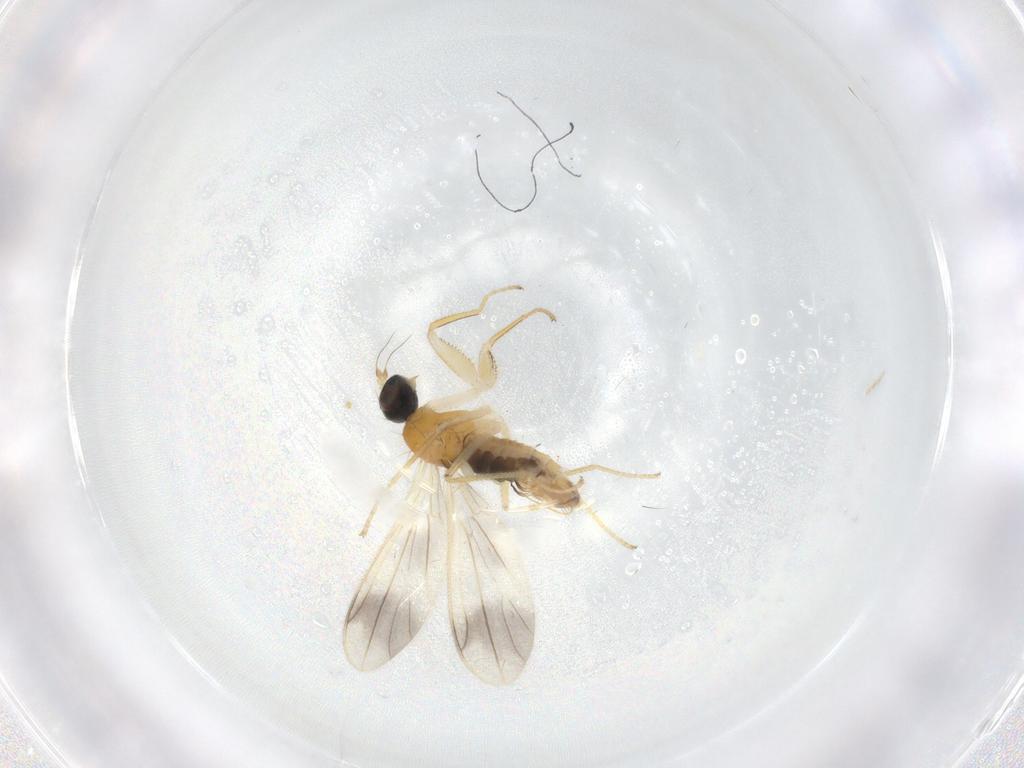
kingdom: Animalia
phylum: Arthropoda
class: Insecta
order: Diptera
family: Empididae
